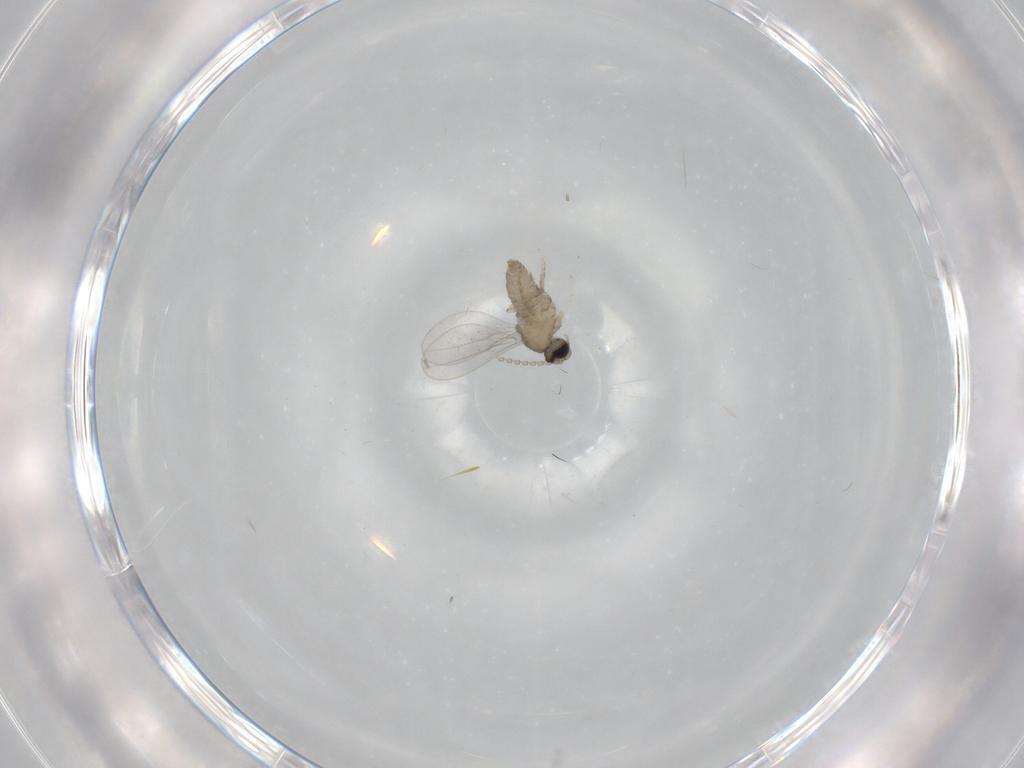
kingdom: Animalia
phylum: Arthropoda
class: Insecta
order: Diptera
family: Cecidomyiidae
